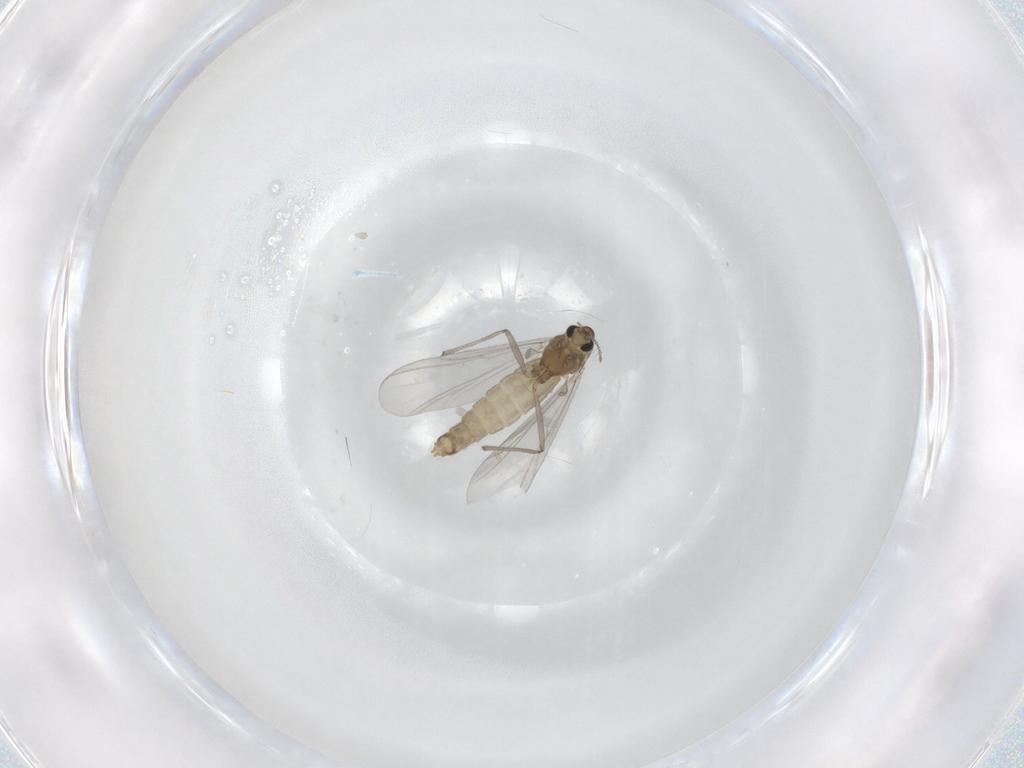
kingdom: Animalia
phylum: Arthropoda
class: Insecta
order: Diptera
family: Chironomidae
